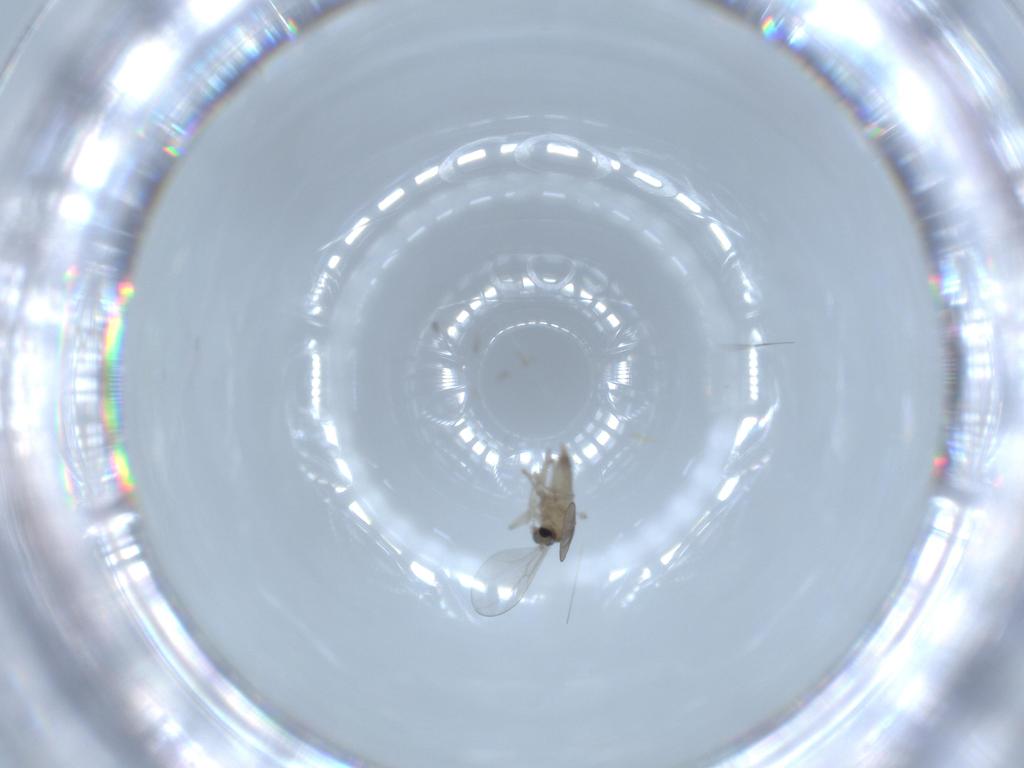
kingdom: Animalia
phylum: Arthropoda
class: Insecta
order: Diptera
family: Cecidomyiidae
